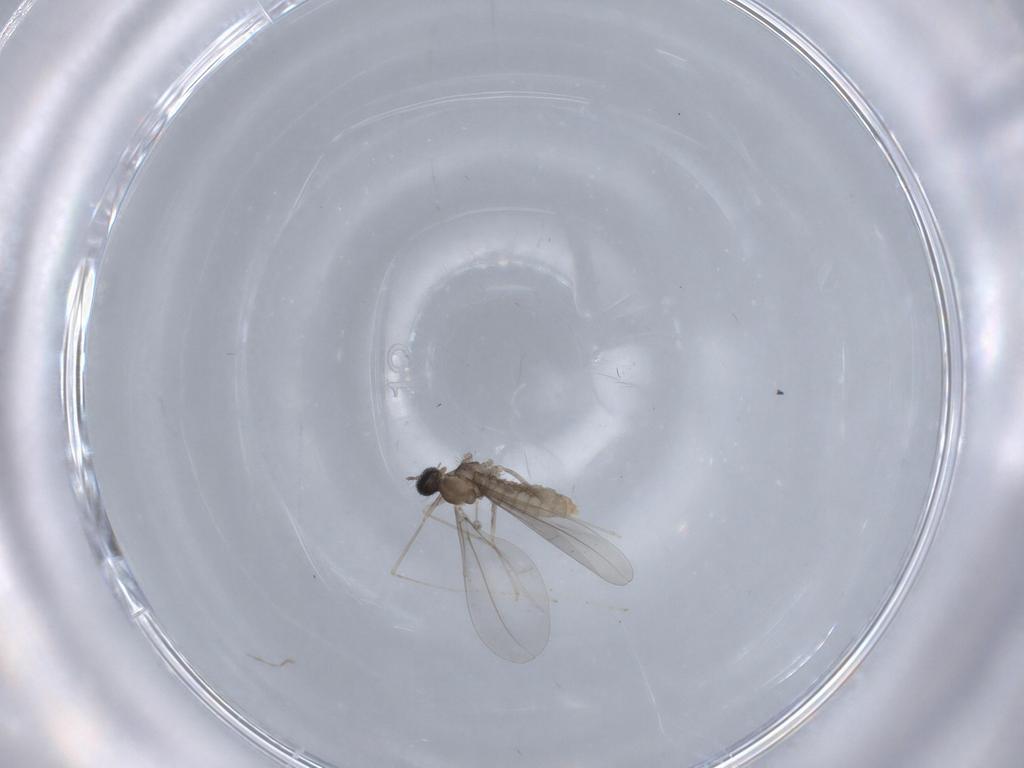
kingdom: Animalia
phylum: Arthropoda
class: Insecta
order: Diptera
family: Cecidomyiidae
